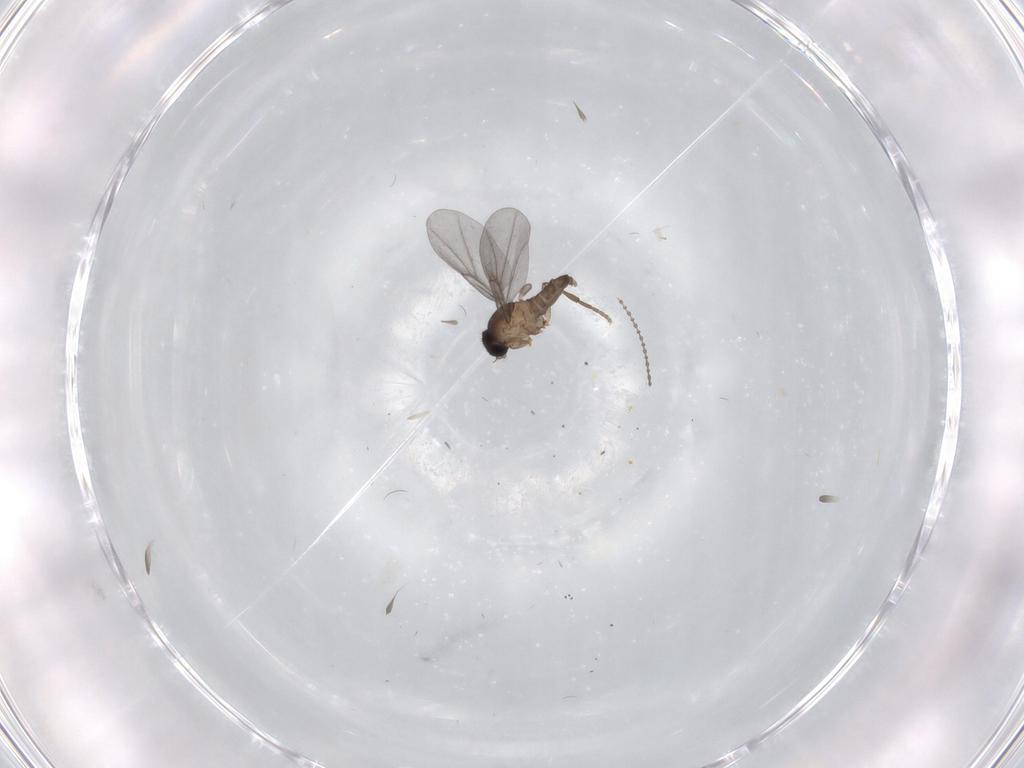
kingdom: Animalia
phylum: Arthropoda
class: Insecta
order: Diptera
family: Phoridae
